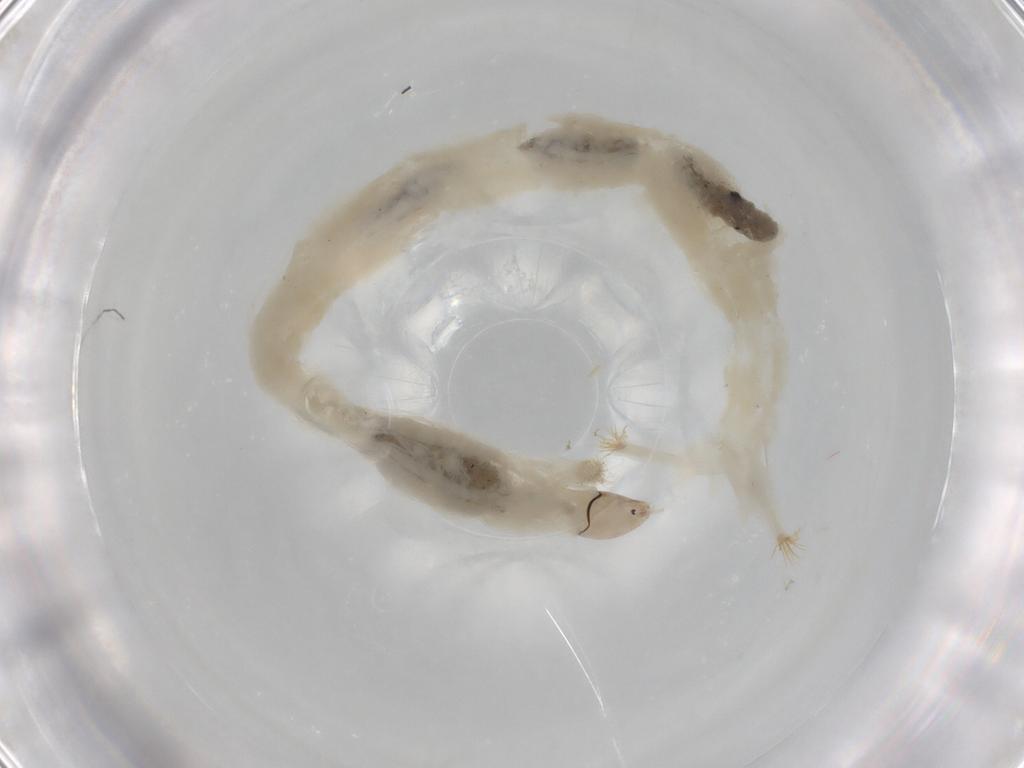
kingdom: Animalia
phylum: Arthropoda
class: Insecta
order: Diptera
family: Chironomidae
